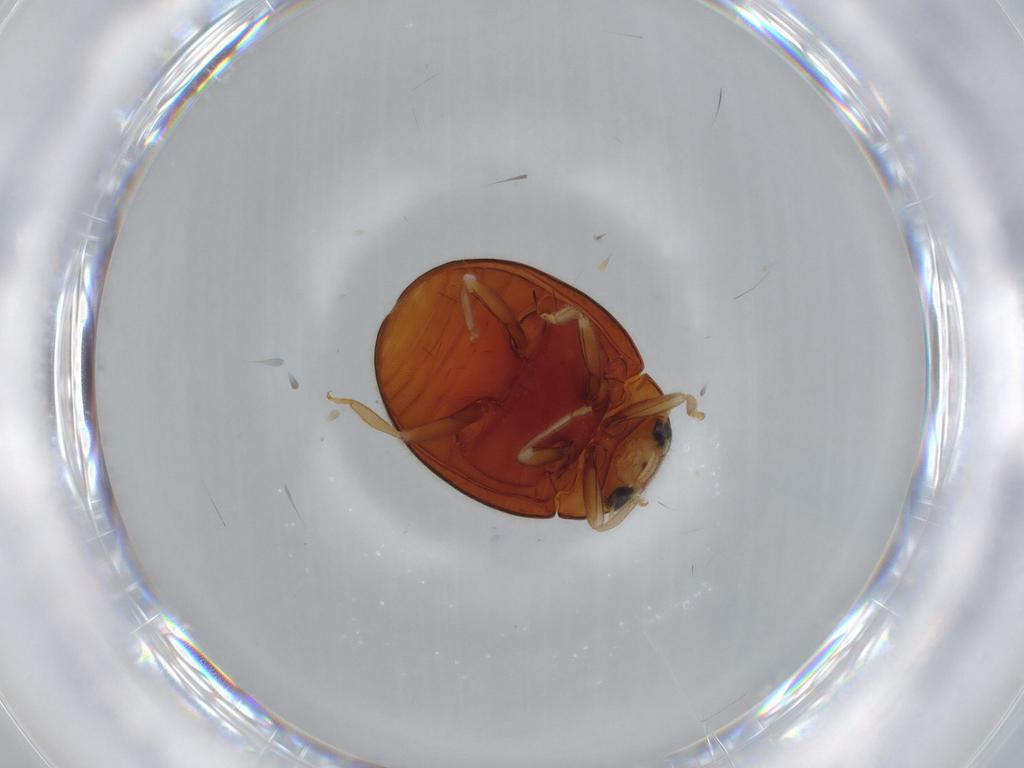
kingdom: Animalia
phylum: Arthropoda
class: Insecta
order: Coleoptera
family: Coccinellidae
